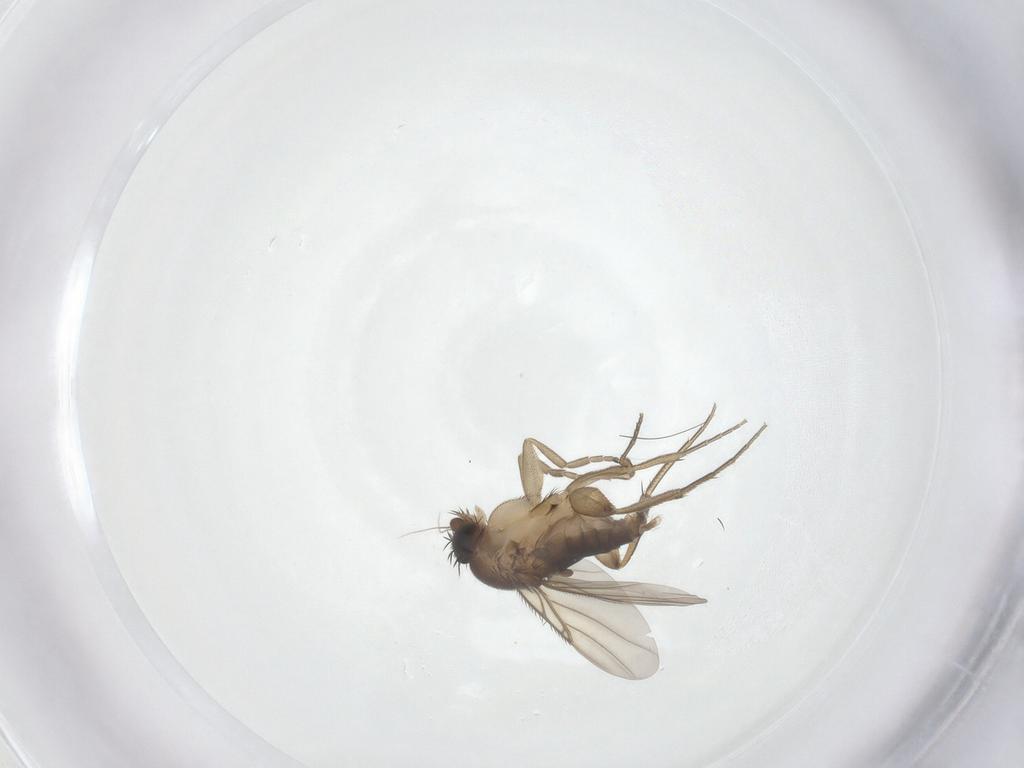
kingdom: Animalia
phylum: Arthropoda
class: Insecta
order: Diptera
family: Phoridae
